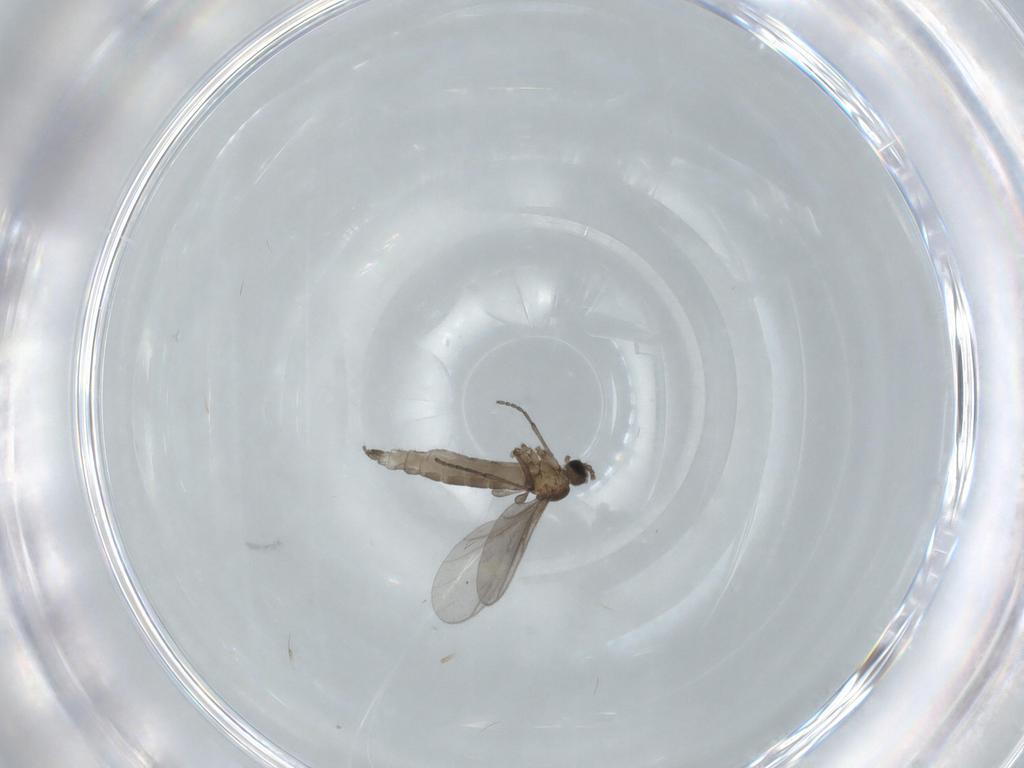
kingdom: Animalia
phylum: Arthropoda
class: Insecta
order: Diptera
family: Sciaridae
